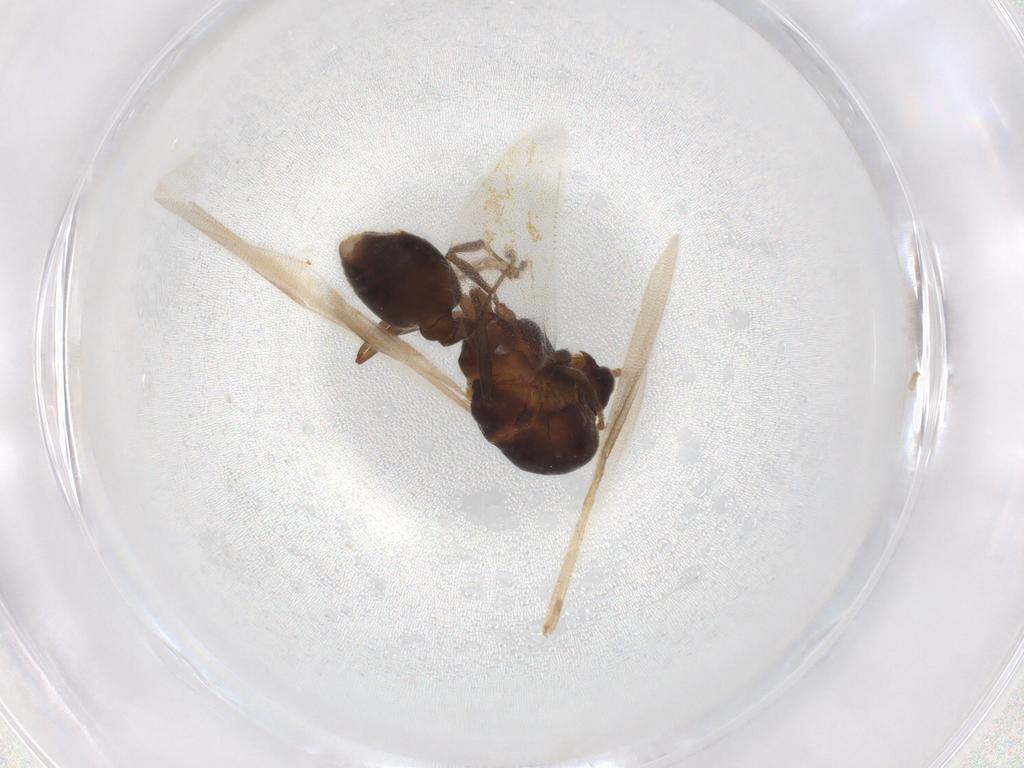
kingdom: Animalia
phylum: Arthropoda
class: Insecta
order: Hymenoptera
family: Formicidae
